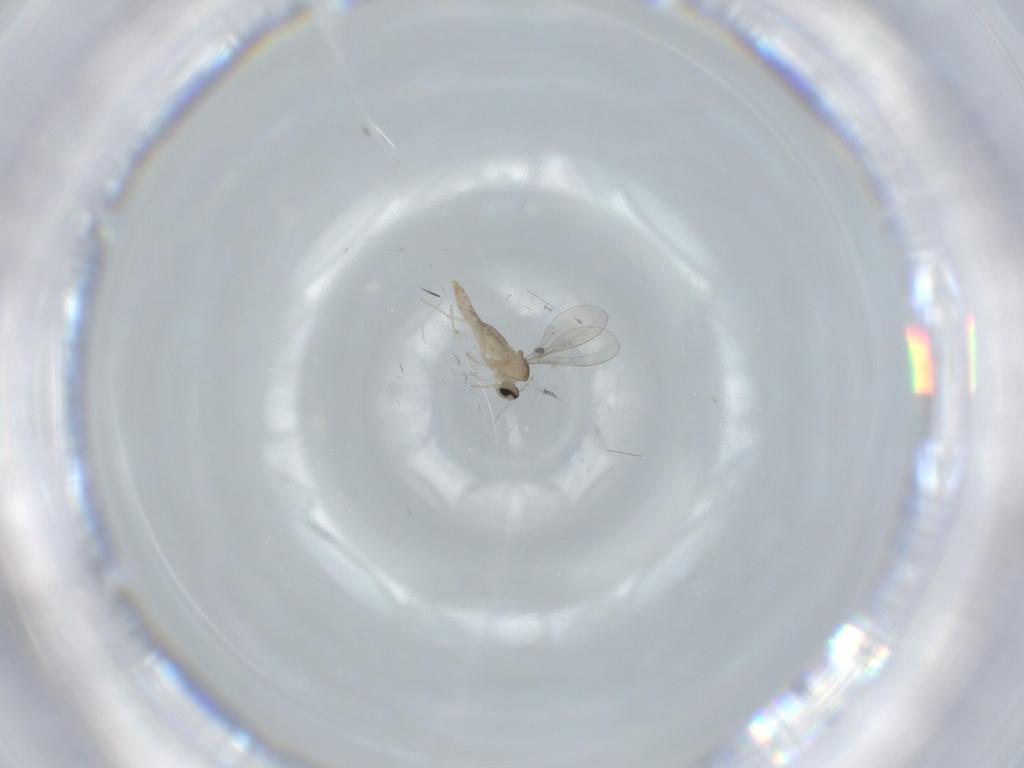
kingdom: Animalia
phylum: Arthropoda
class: Insecta
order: Diptera
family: Cecidomyiidae
